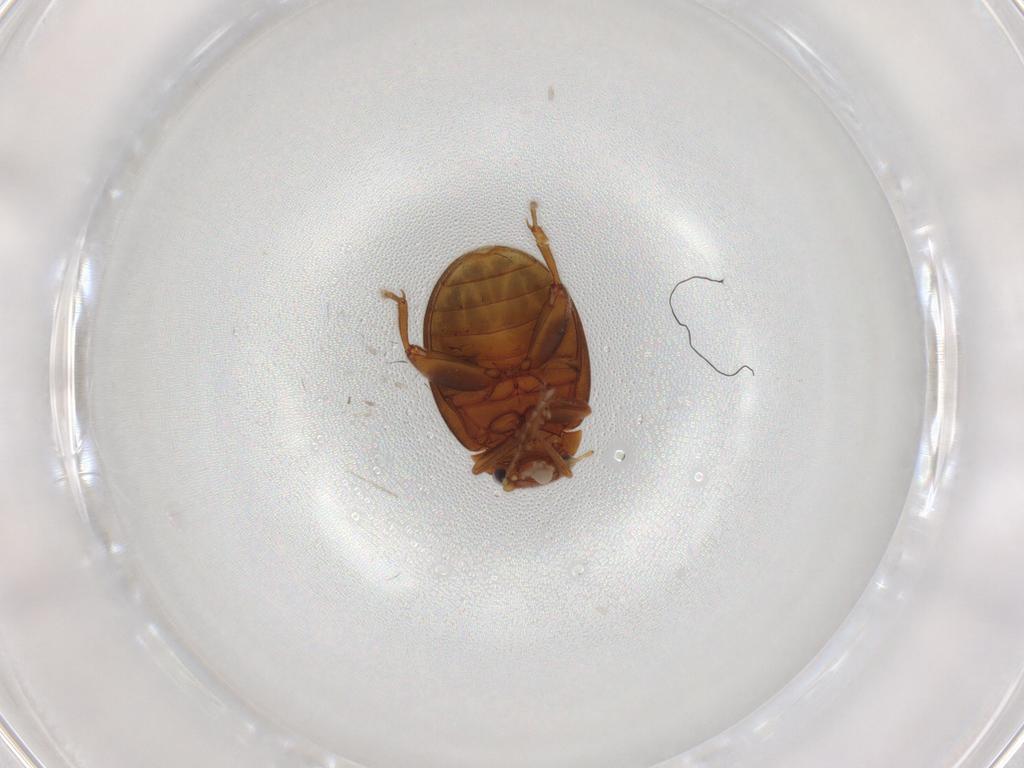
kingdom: Animalia
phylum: Arthropoda
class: Insecta
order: Coleoptera
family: Scirtidae
